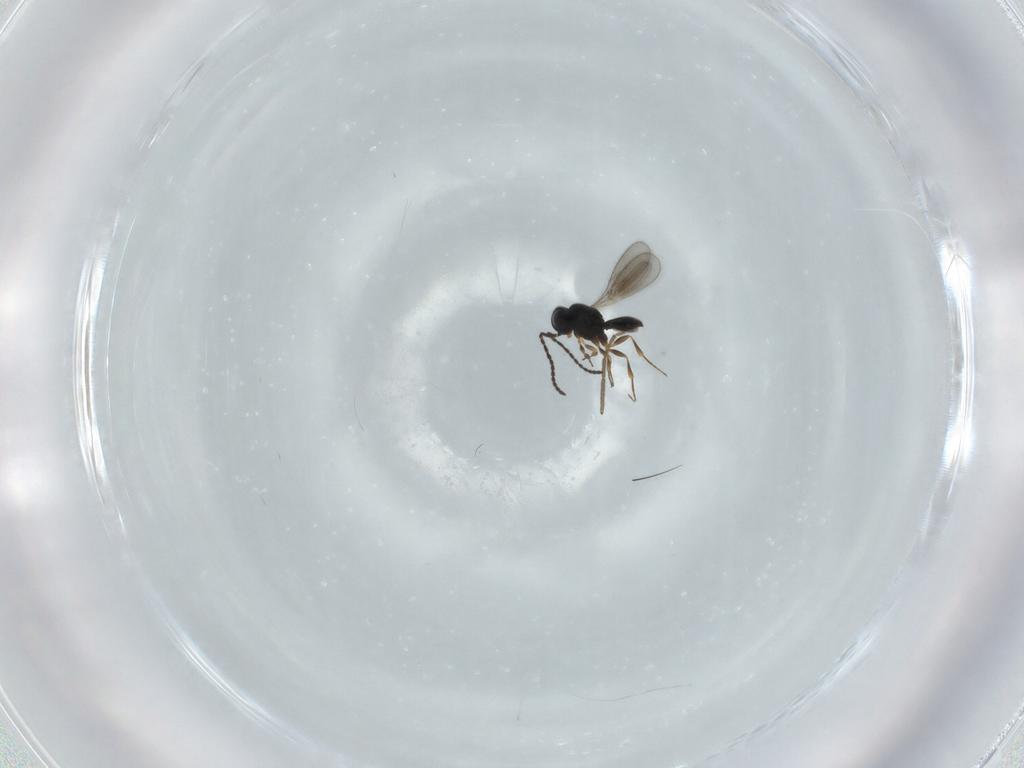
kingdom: Animalia
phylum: Arthropoda
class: Insecta
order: Hymenoptera
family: Scelionidae
